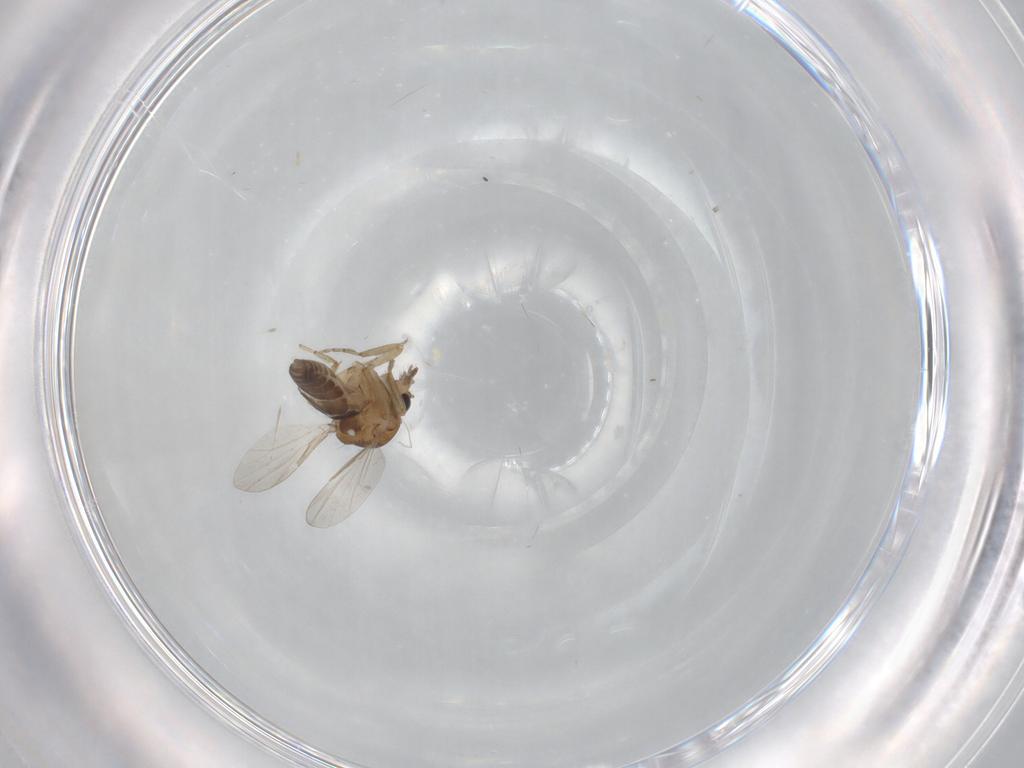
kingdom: Animalia
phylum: Arthropoda
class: Insecta
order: Diptera
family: Ceratopogonidae
